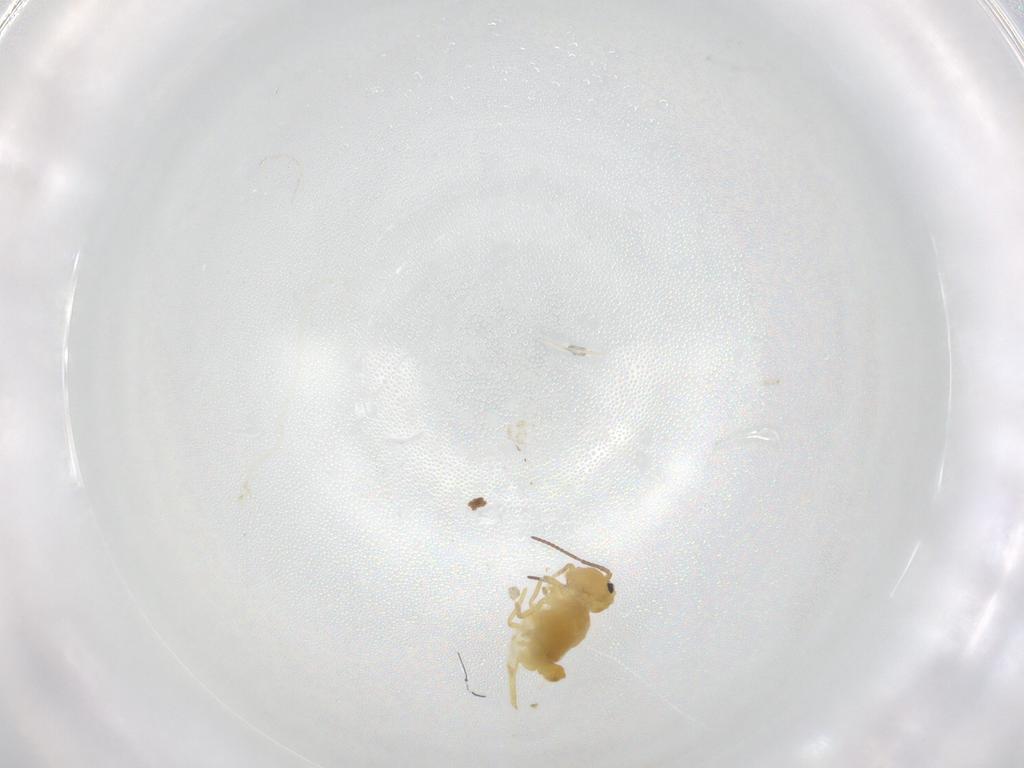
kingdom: Animalia
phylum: Arthropoda
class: Collembola
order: Symphypleona
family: Bourletiellidae
